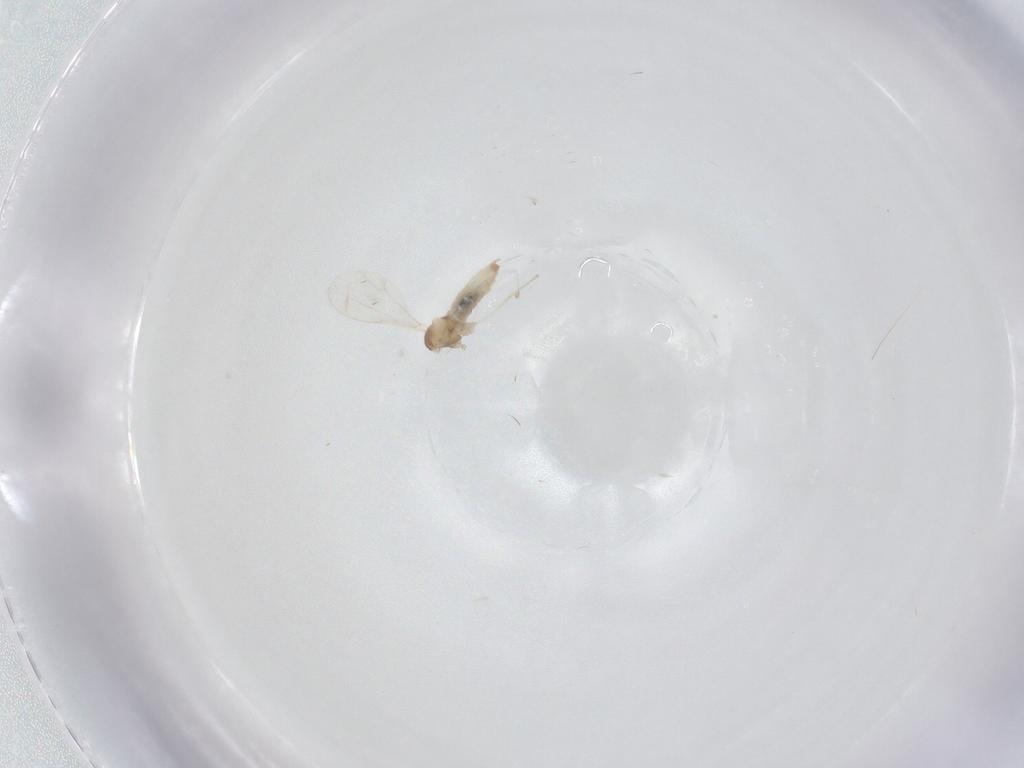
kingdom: Animalia
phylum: Arthropoda
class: Insecta
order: Diptera
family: Cecidomyiidae
